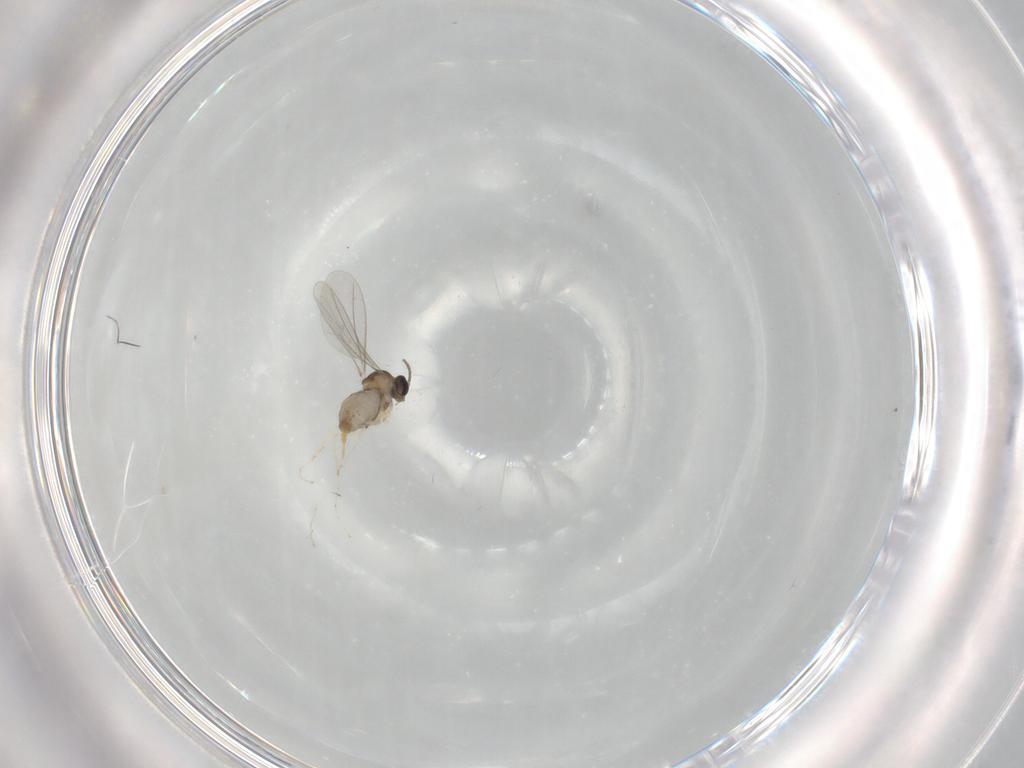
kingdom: Animalia
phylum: Arthropoda
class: Insecta
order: Diptera
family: Cecidomyiidae
